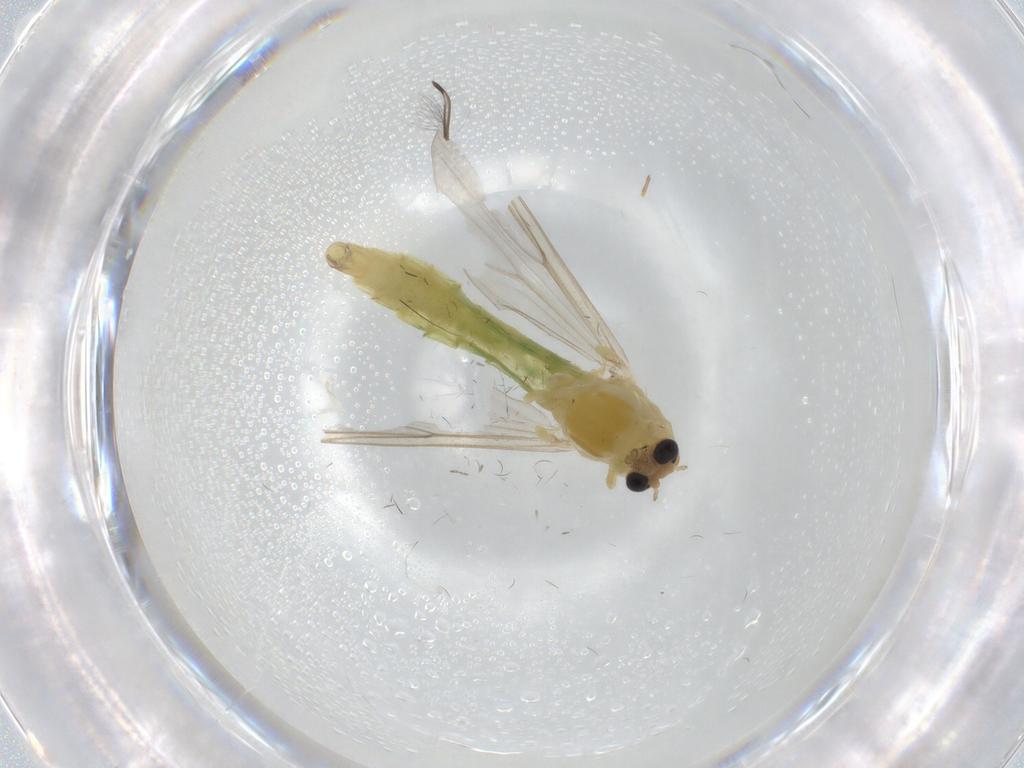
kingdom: Animalia
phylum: Arthropoda
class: Insecta
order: Diptera
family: Chironomidae
